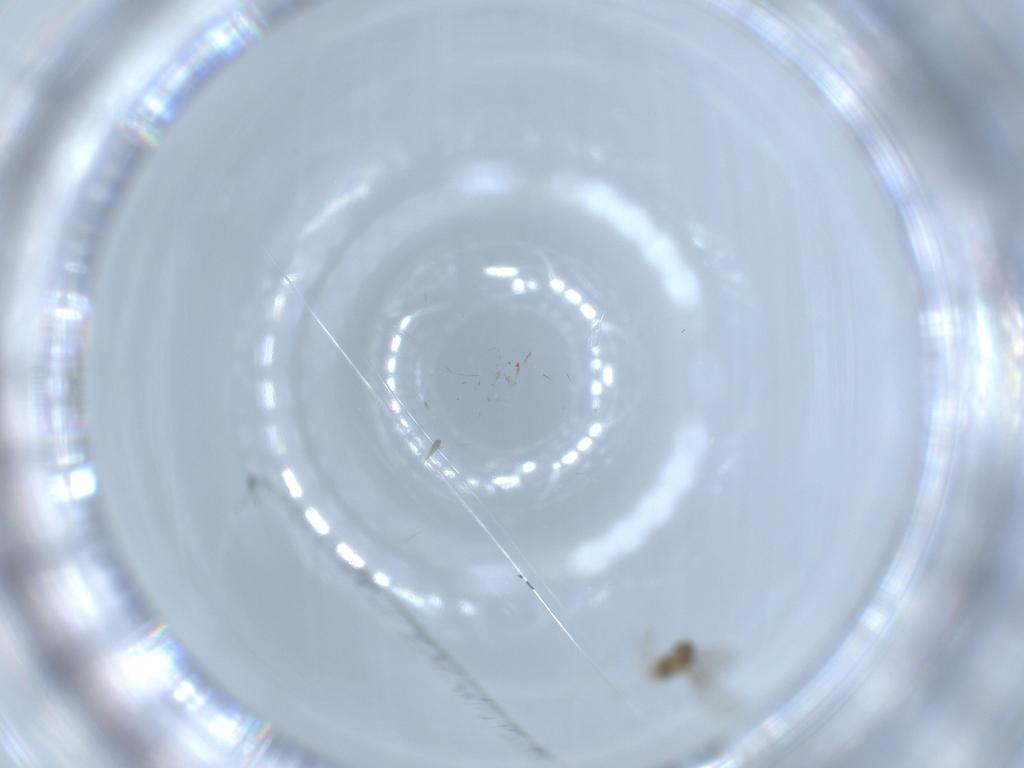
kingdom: Animalia
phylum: Arthropoda
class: Insecta
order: Diptera
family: Cecidomyiidae
